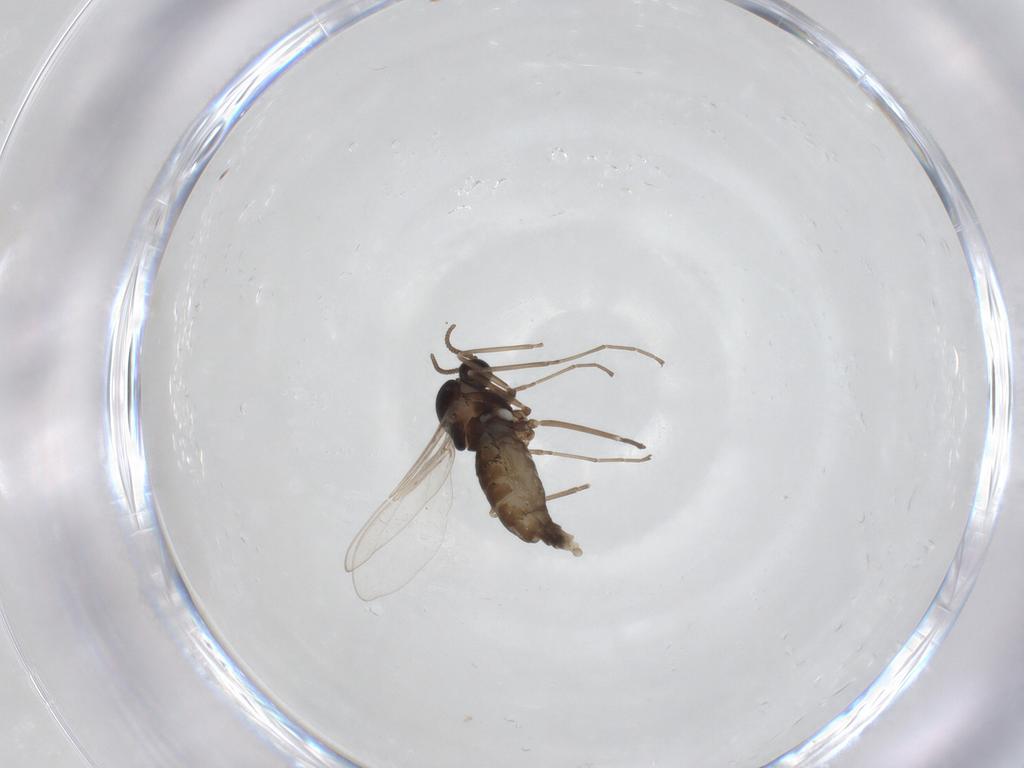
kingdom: Animalia
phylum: Arthropoda
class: Insecta
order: Diptera
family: Cecidomyiidae
